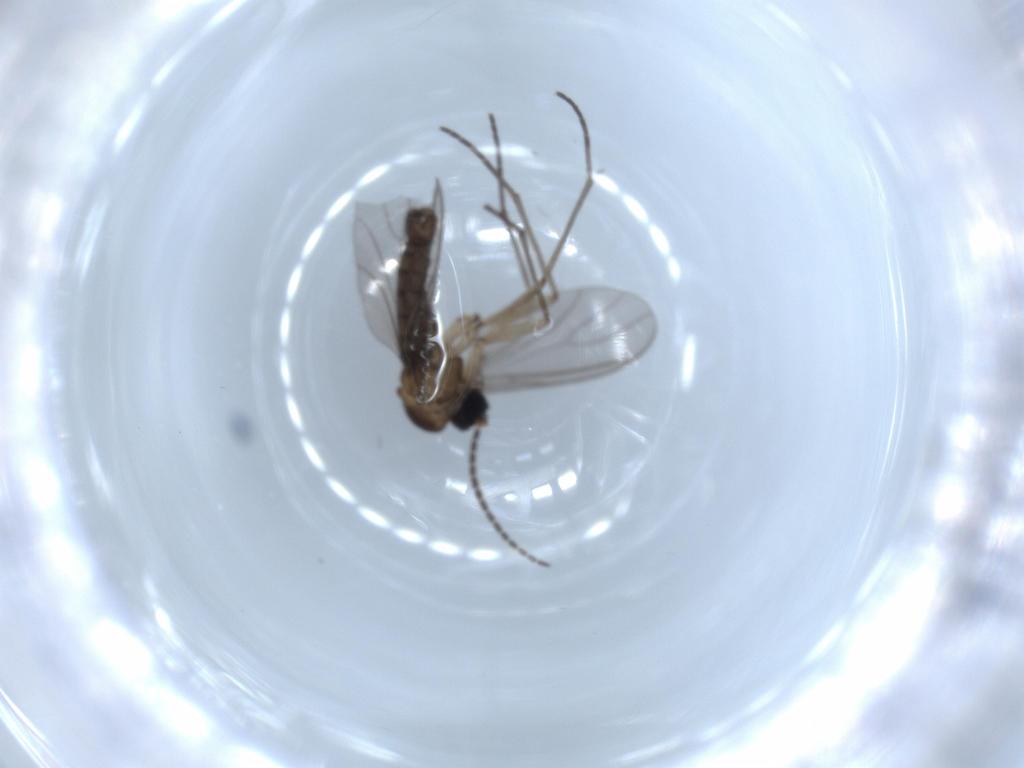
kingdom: Animalia
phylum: Arthropoda
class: Insecta
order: Diptera
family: Sciaridae
